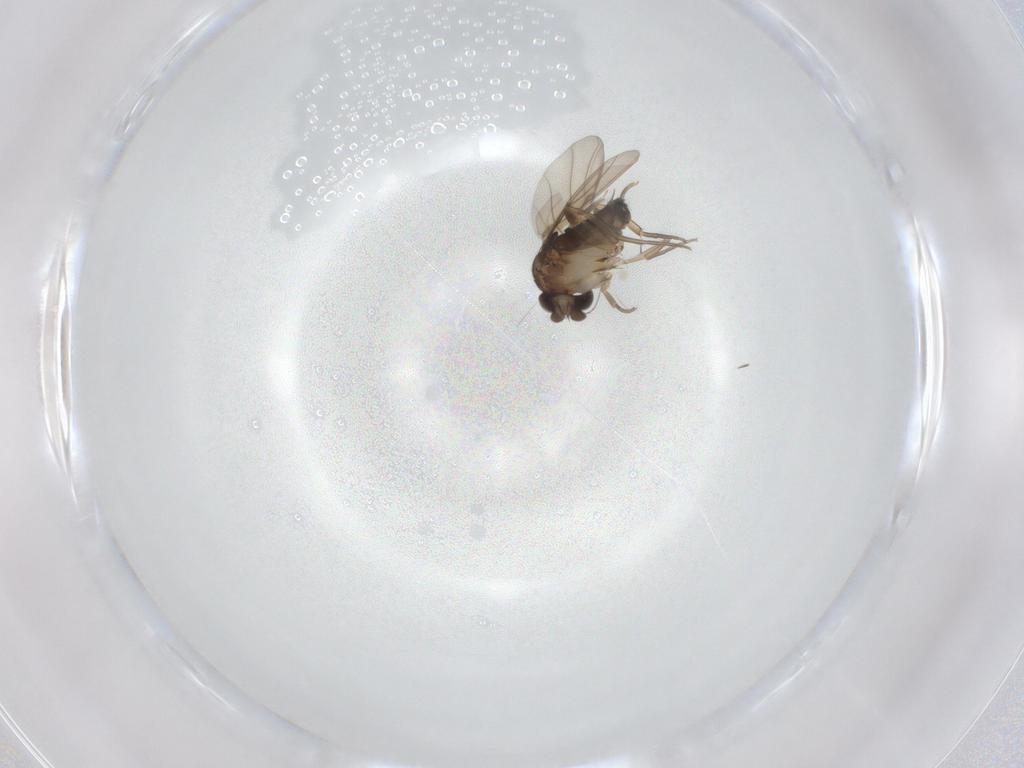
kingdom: Animalia
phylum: Arthropoda
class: Insecta
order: Diptera
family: Phoridae
